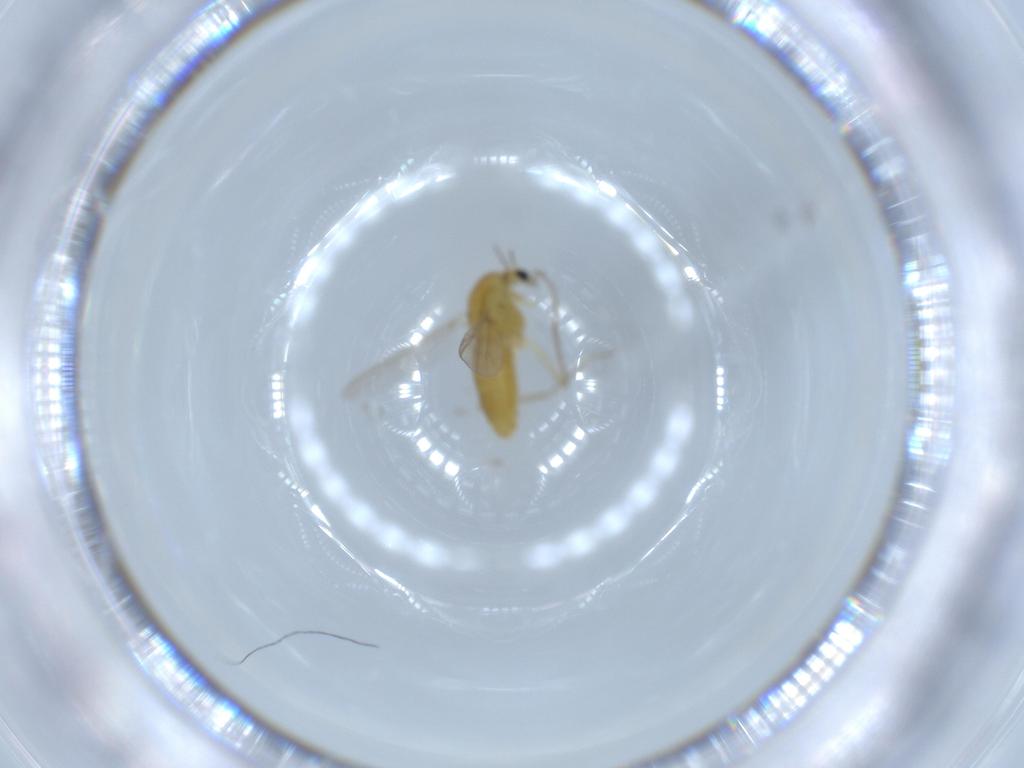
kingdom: Animalia
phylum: Arthropoda
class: Insecta
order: Diptera
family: Chironomidae
